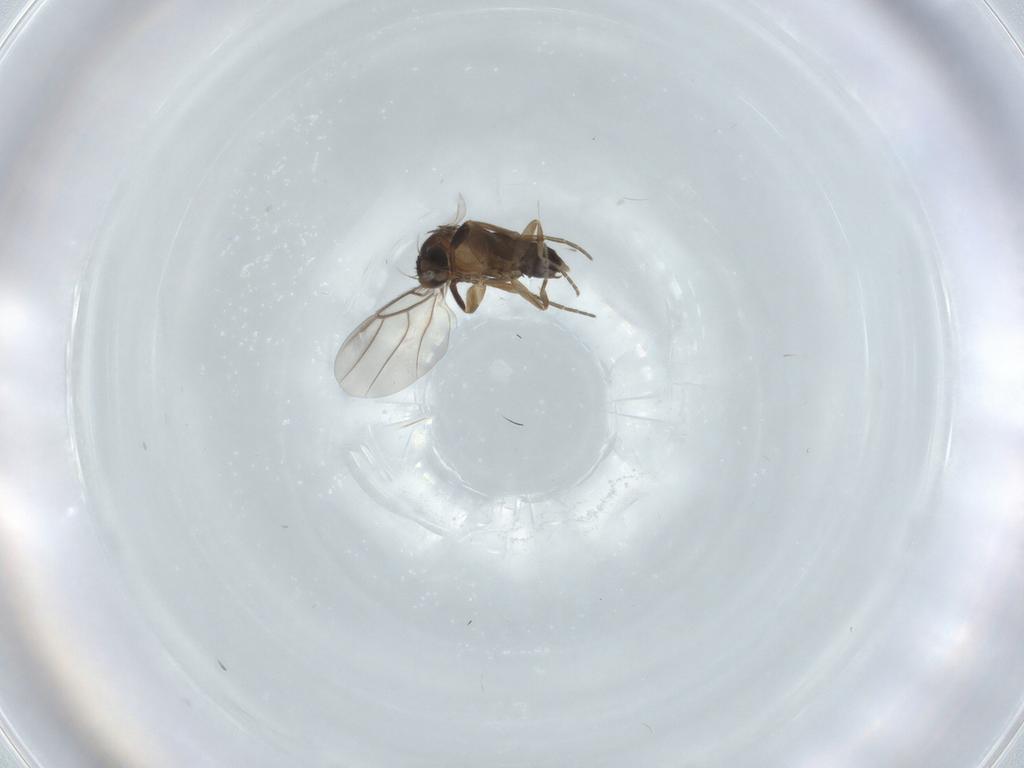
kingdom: Animalia
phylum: Arthropoda
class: Insecta
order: Diptera
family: Phoridae
